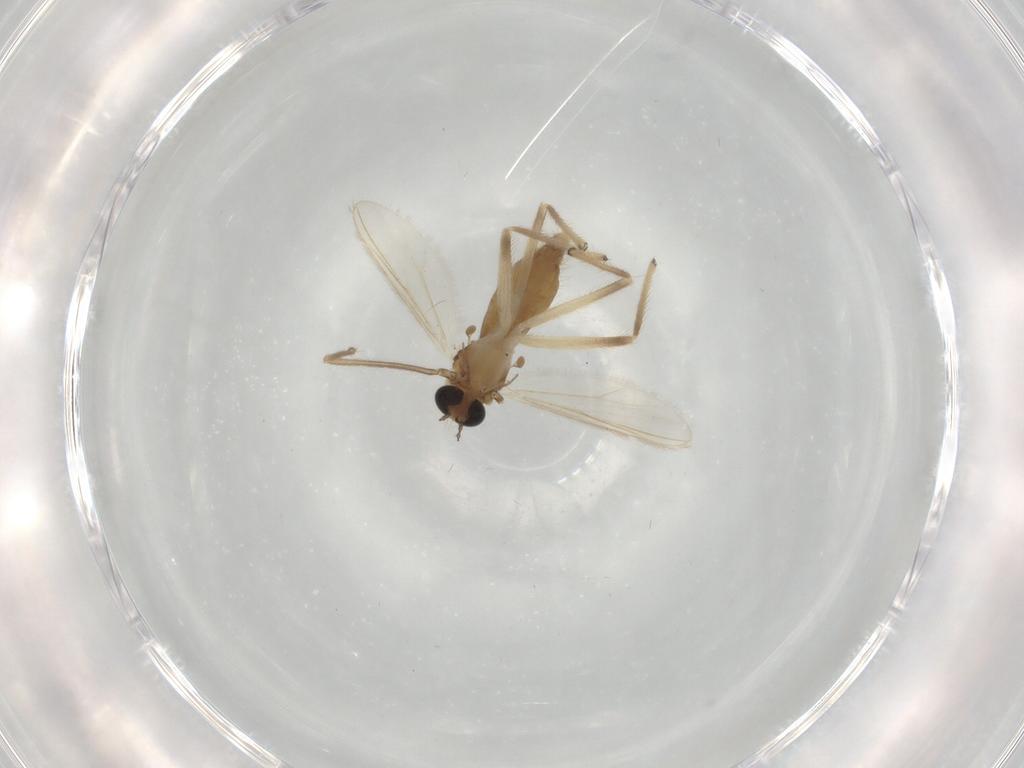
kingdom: Animalia
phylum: Arthropoda
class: Insecta
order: Diptera
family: Chironomidae
